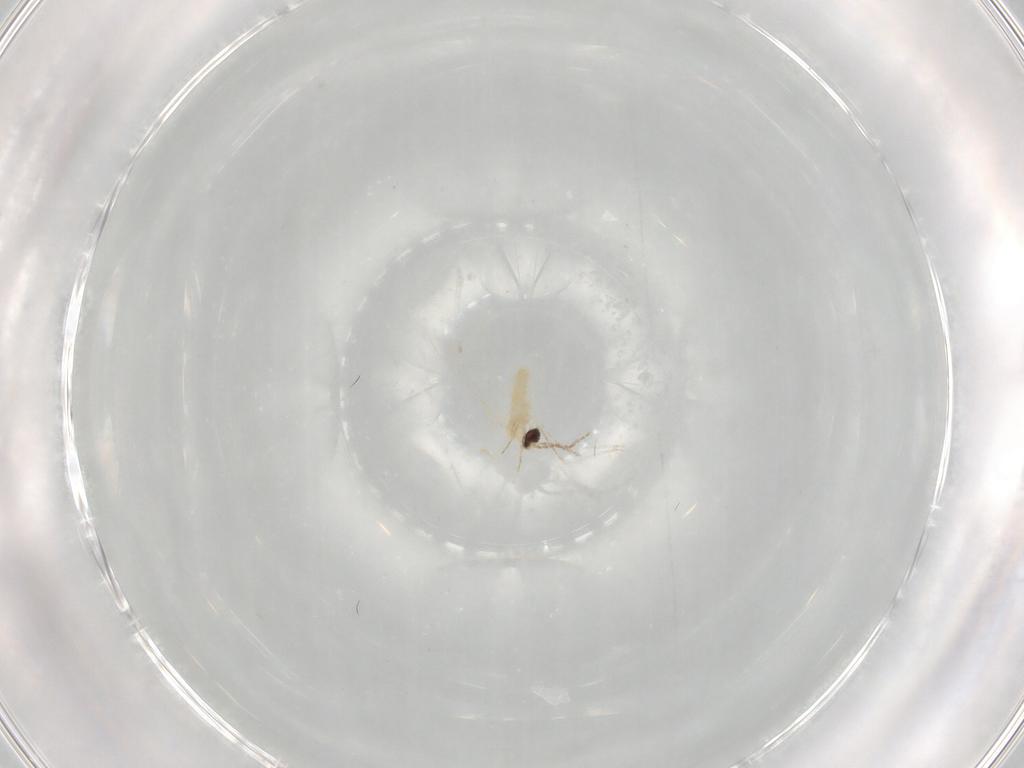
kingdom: Animalia
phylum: Arthropoda
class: Insecta
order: Diptera
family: Cecidomyiidae
